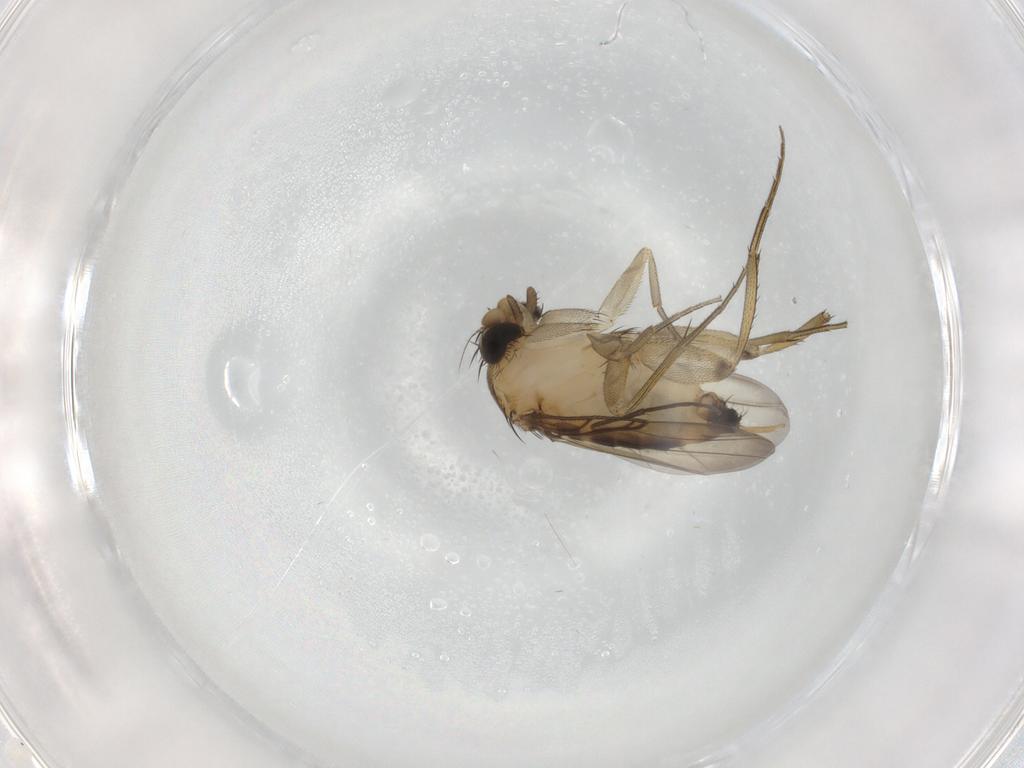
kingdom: Animalia
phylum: Arthropoda
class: Insecta
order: Diptera
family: Phoridae
